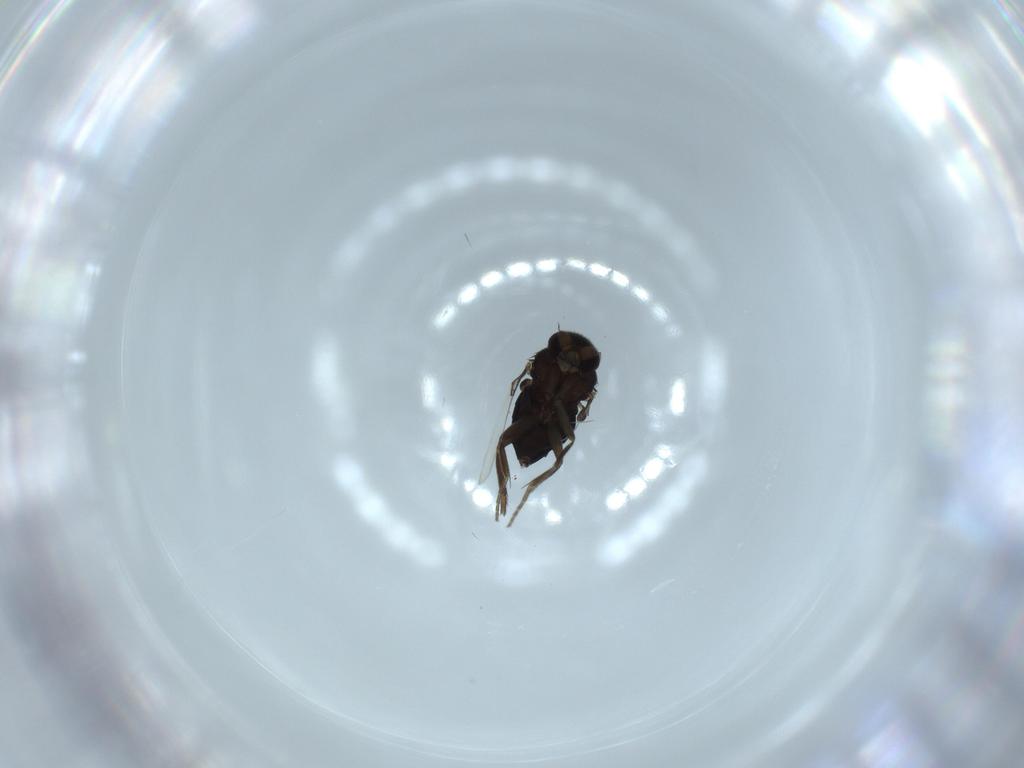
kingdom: Animalia
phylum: Arthropoda
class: Insecta
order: Diptera
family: Phoridae
